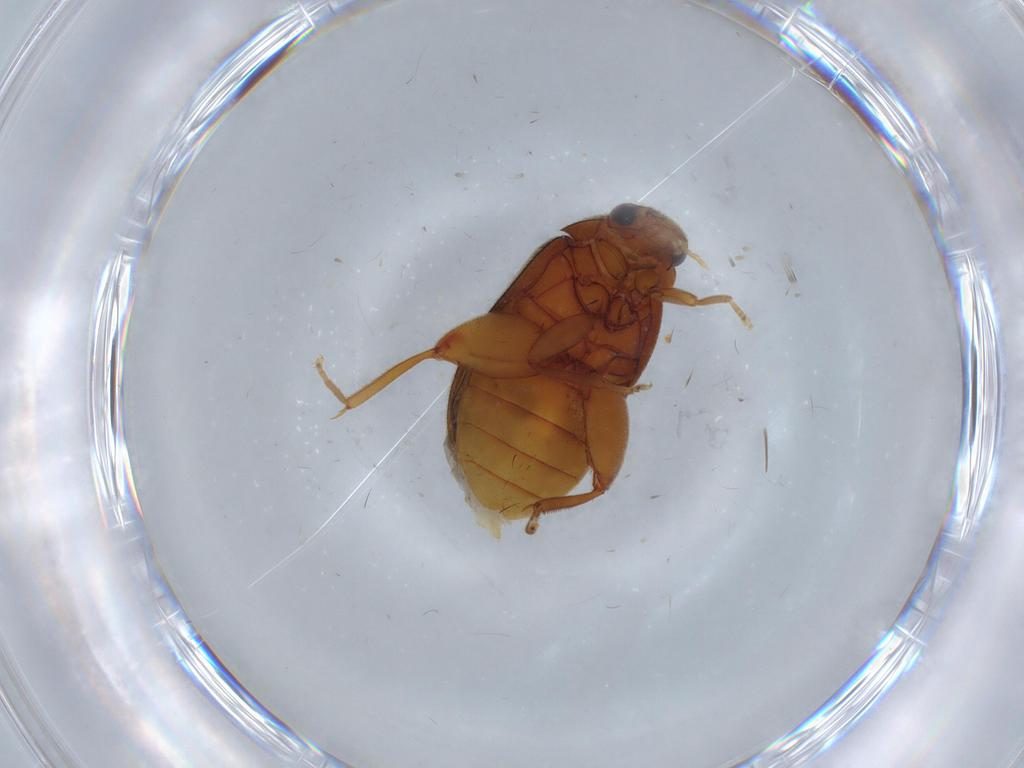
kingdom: Animalia
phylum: Arthropoda
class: Insecta
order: Coleoptera
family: Scirtidae
